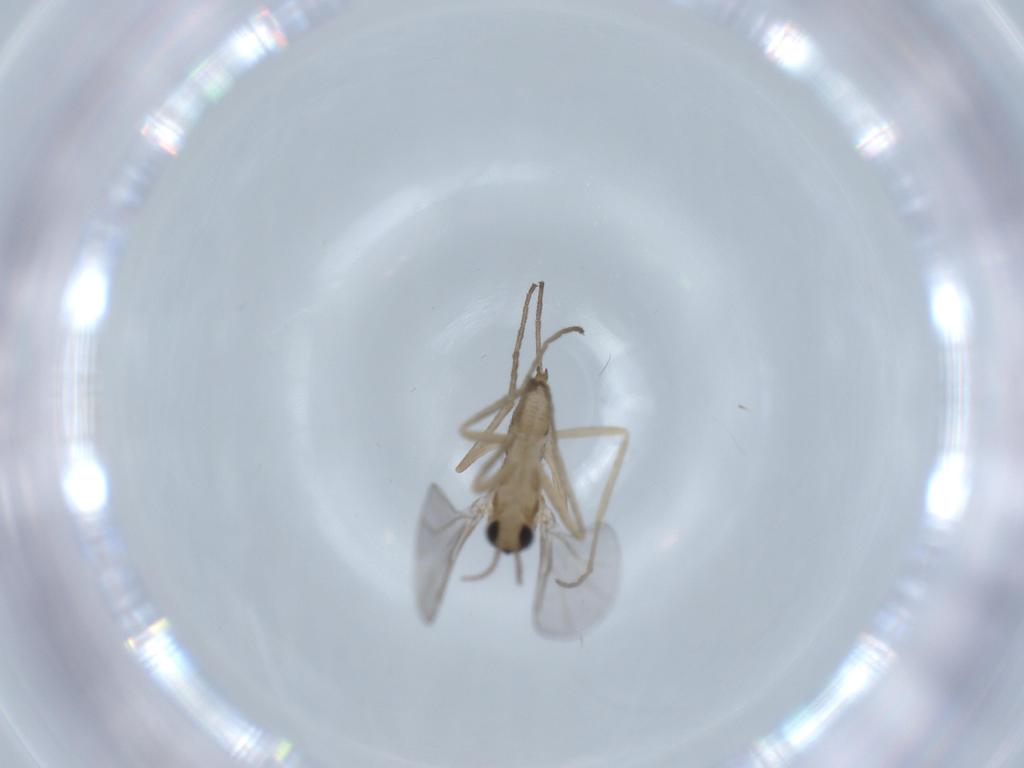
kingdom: Animalia
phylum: Arthropoda
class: Insecta
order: Diptera
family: Cecidomyiidae
